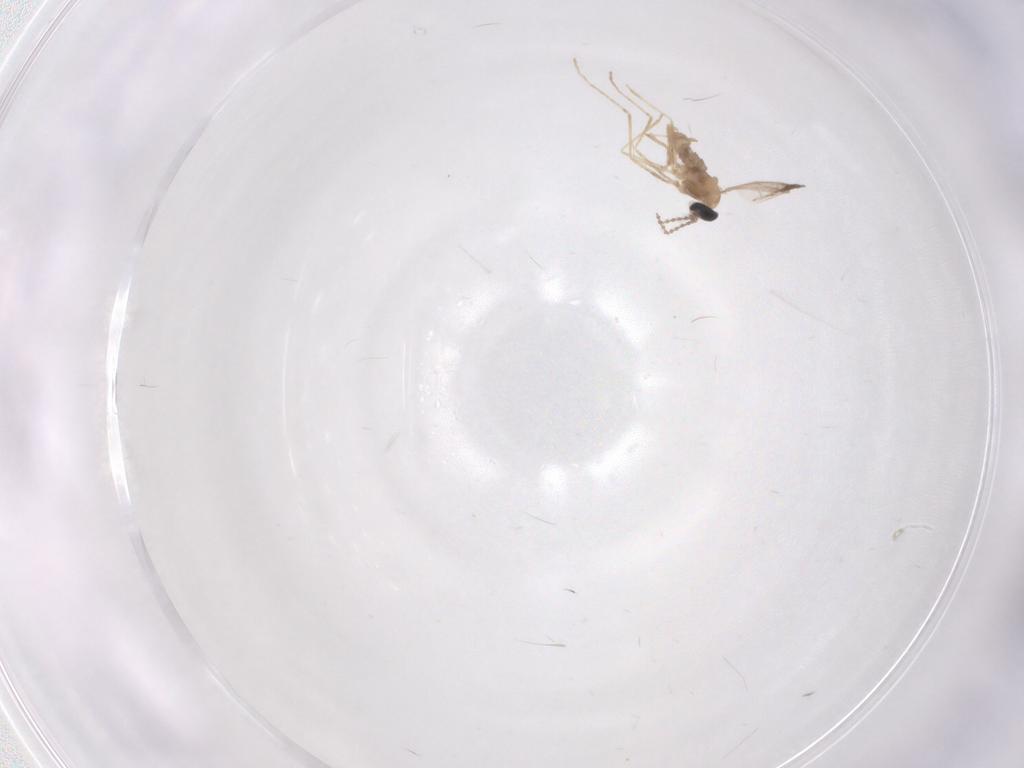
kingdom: Animalia
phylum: Arthropoda
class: Insecta
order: Diptera
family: Cecidomyiidae
